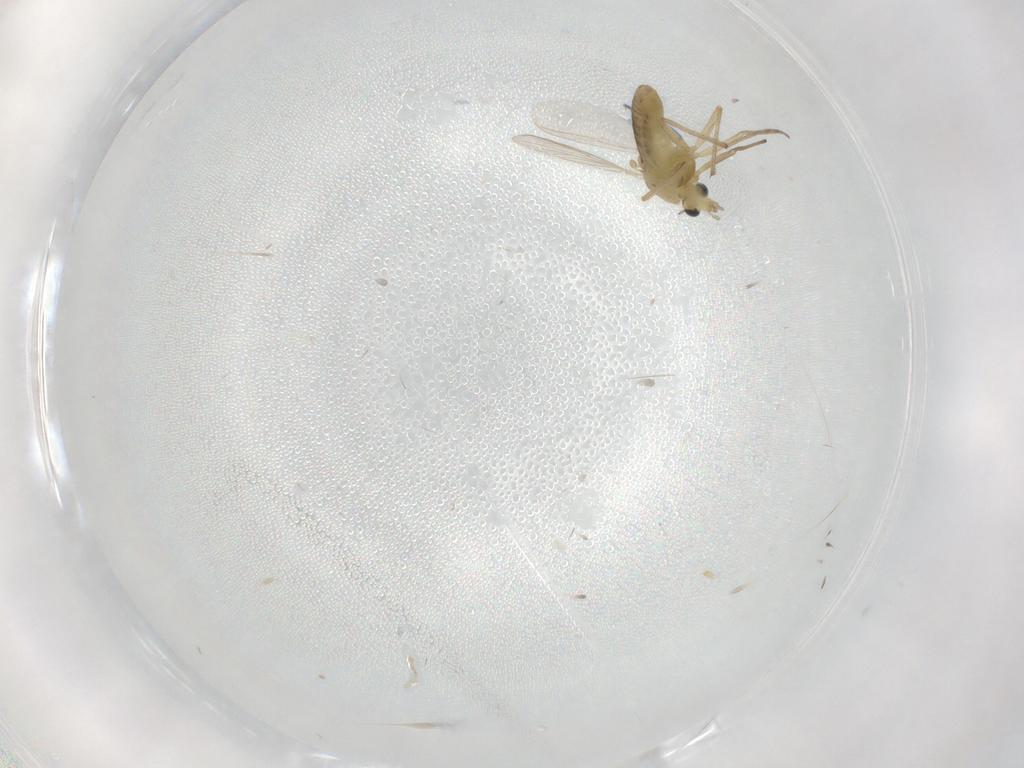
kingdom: Animalia
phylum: Arthropoda
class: Insecta
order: Diptera
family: Chironomidae
